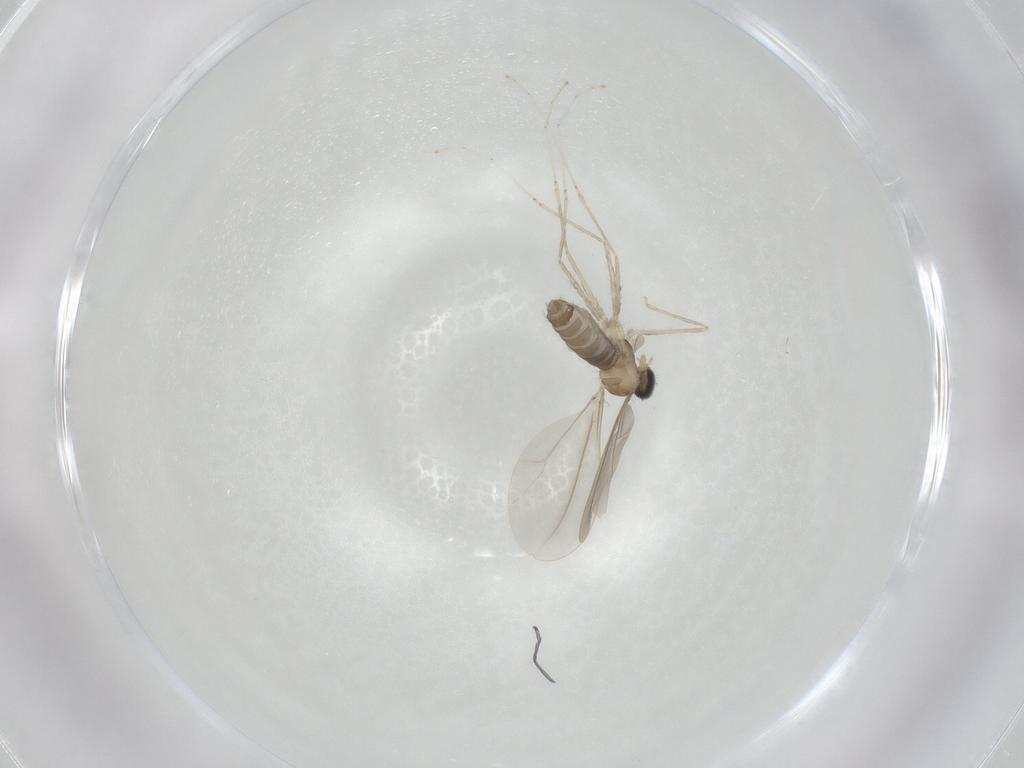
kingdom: Animalia
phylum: Arthropoda
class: Insecta
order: Diptera
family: Cecidomyiidae
